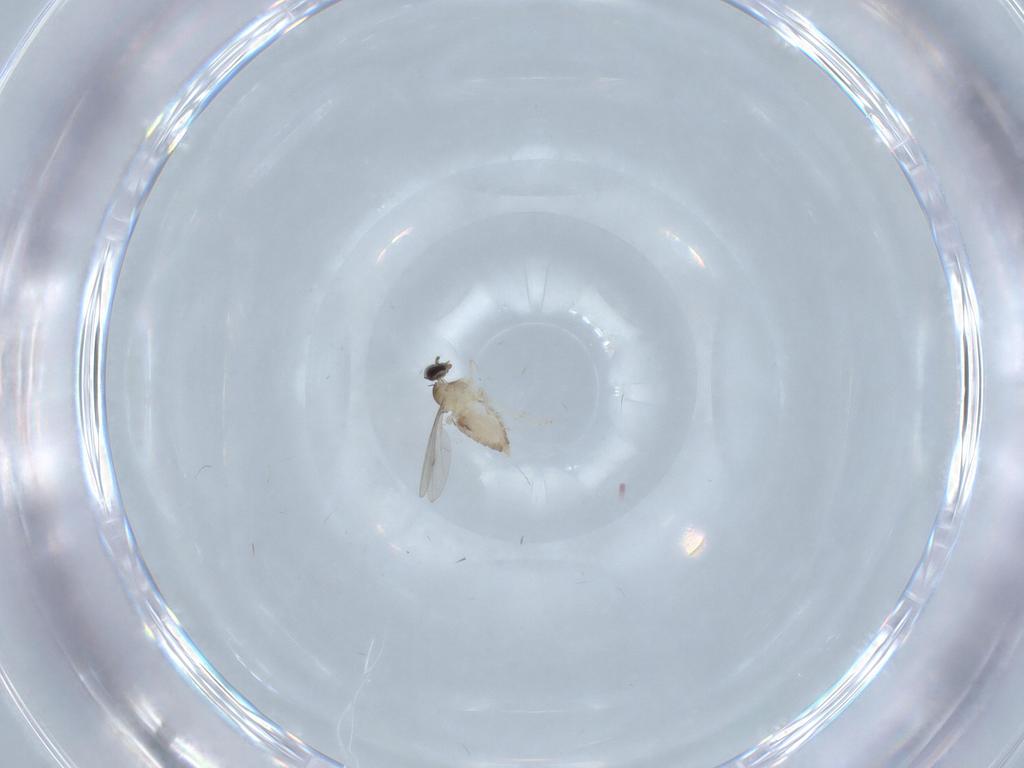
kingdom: Animalia
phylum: Arthropoda
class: Insecta
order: Diptera
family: Cecidomyiidae
